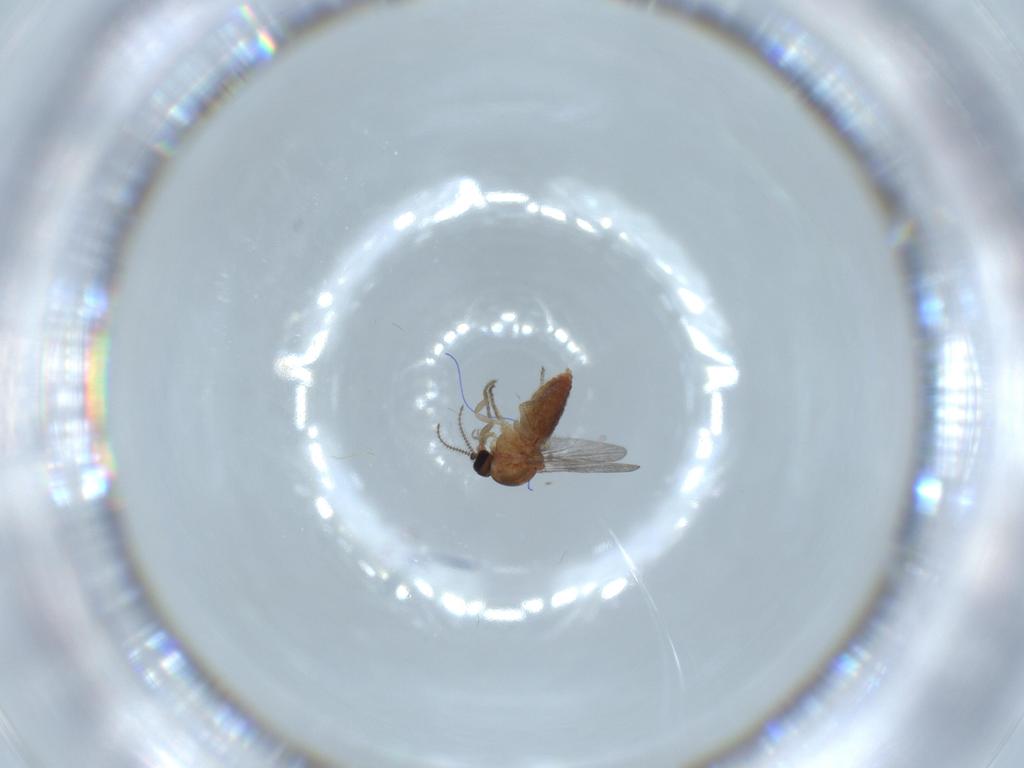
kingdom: Animalia
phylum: Arthropoda
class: Insecta
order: Diptera
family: Ceratopogonidae
